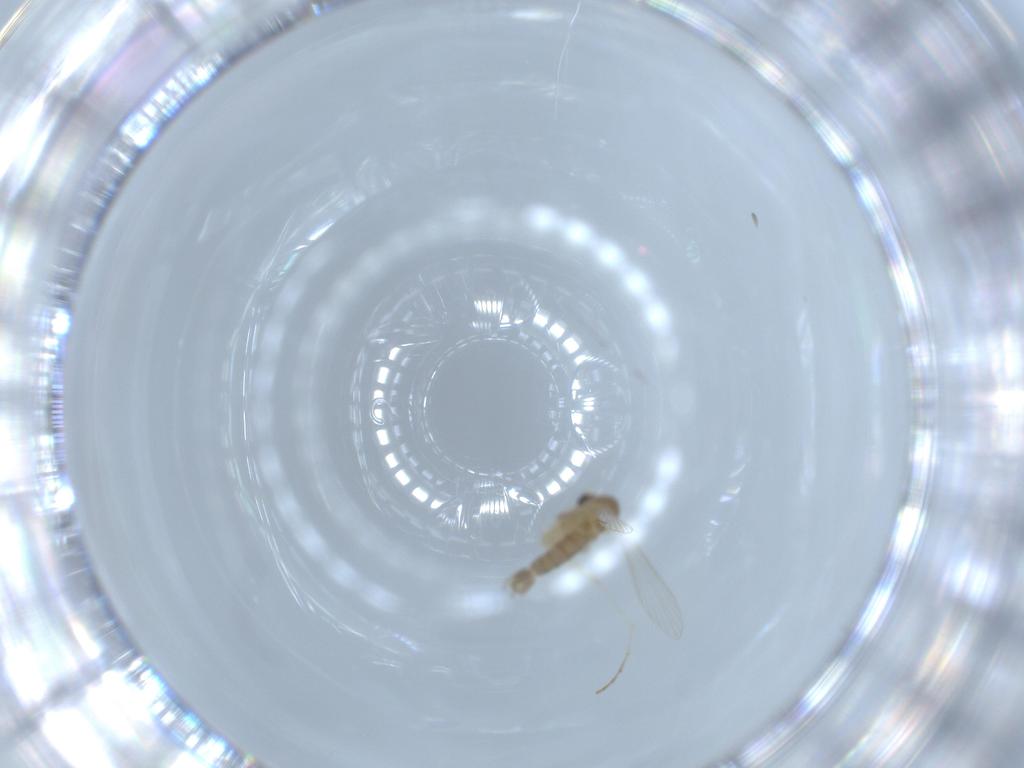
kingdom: Animalia
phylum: Arthropoda
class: Insecta
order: Diptera
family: Psychodidae
